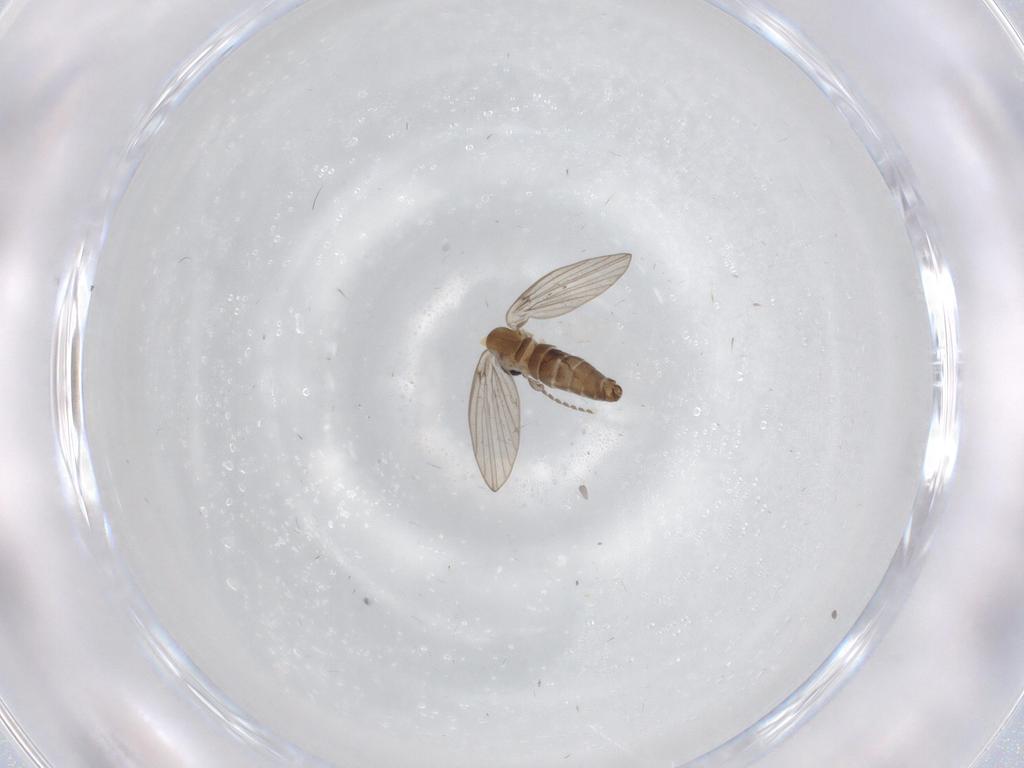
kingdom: Animalia
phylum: Arthropoda
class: Insecta
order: Diptera
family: Psychodidae
